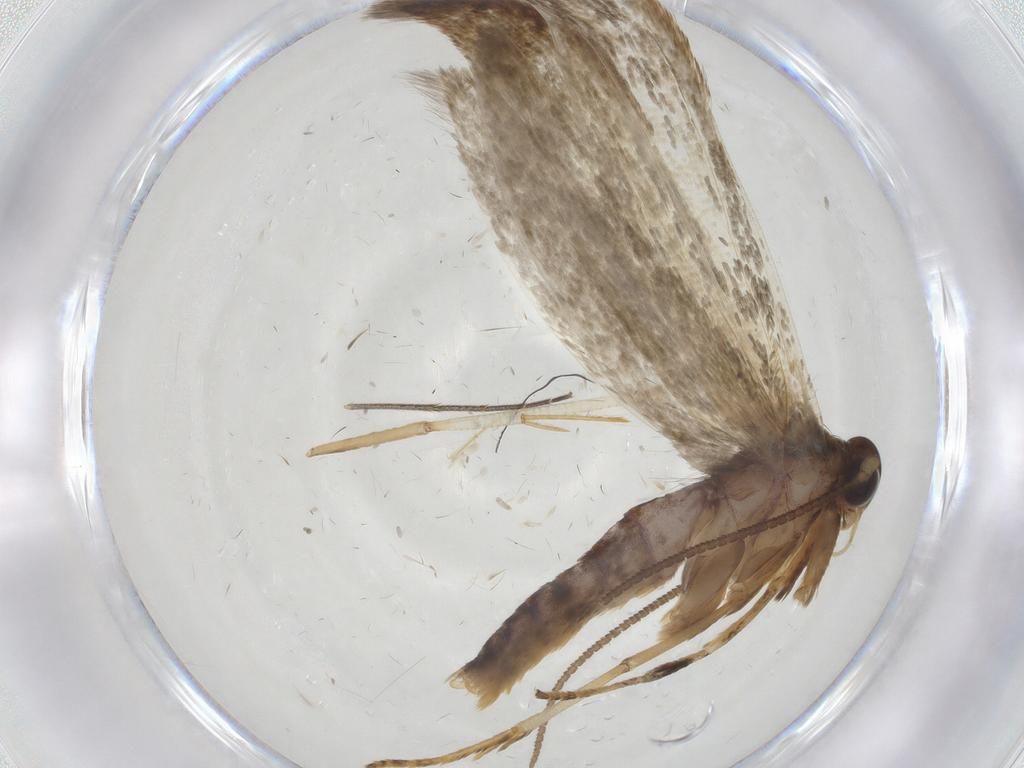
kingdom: Animalia
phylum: Arthropoda
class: Insecta
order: Lepidoptera
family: Blastobasidae
